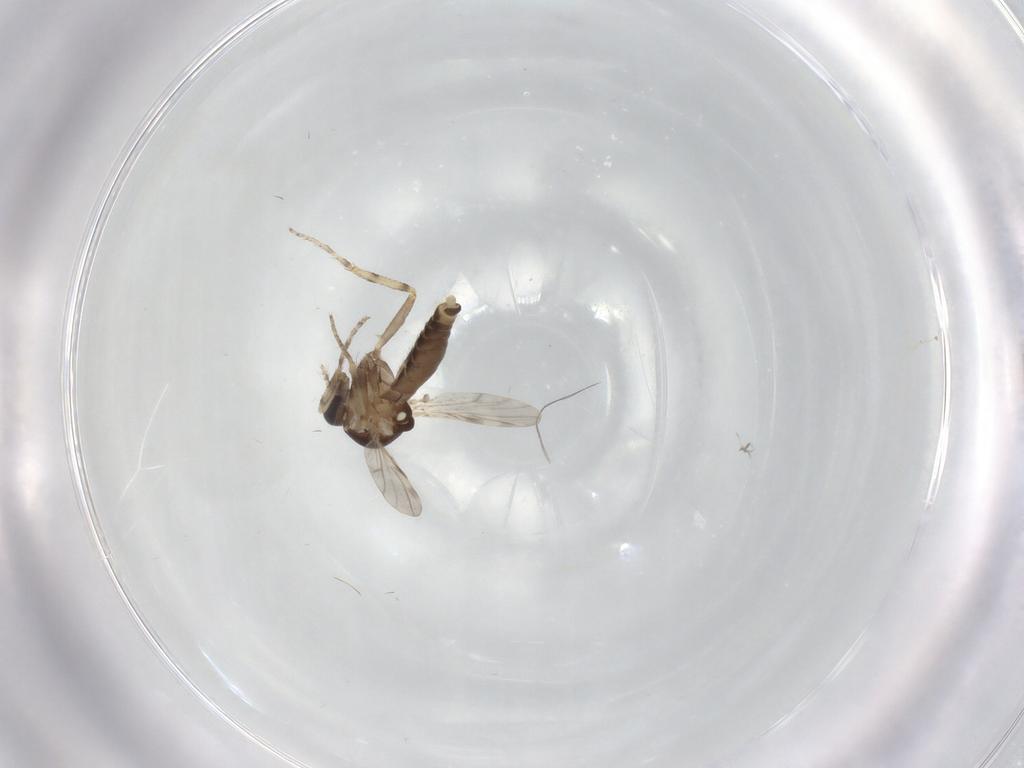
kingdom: Animalia
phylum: Arthropoda
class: Insecta
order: Diptera
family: Ceratopogonidae
